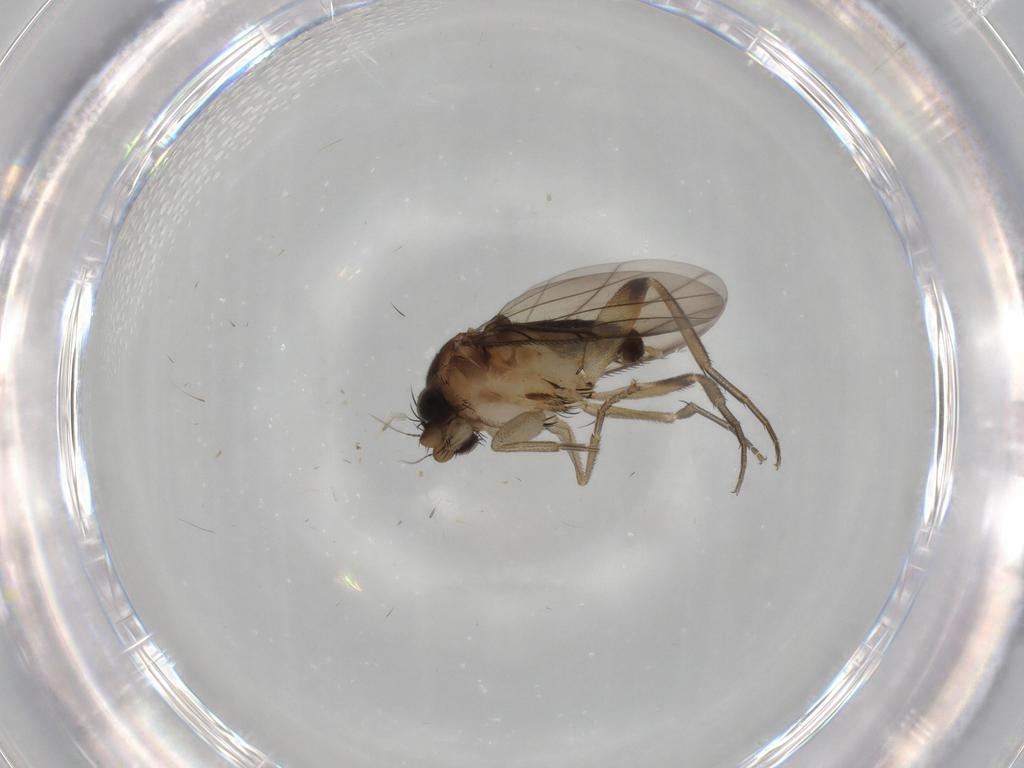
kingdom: Animalia
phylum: Arthropoda
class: Insecta
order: Diptera
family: Phoridae
